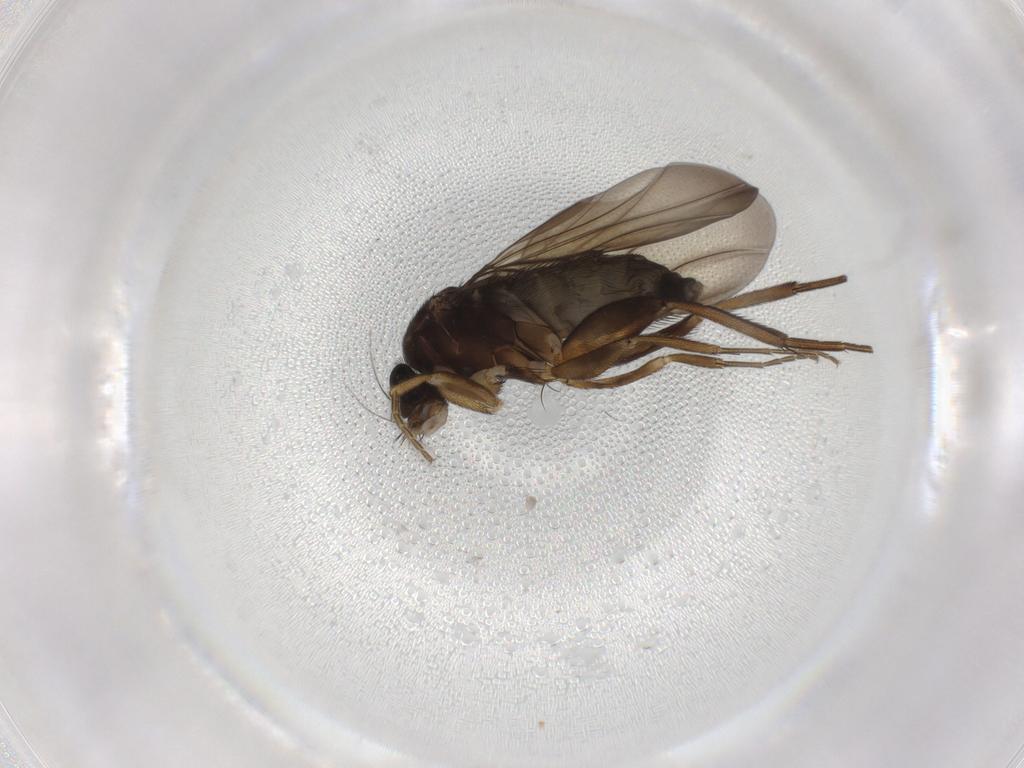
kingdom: Animalia
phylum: Arthropoda
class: Insecta
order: Diptera
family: Phoridae
